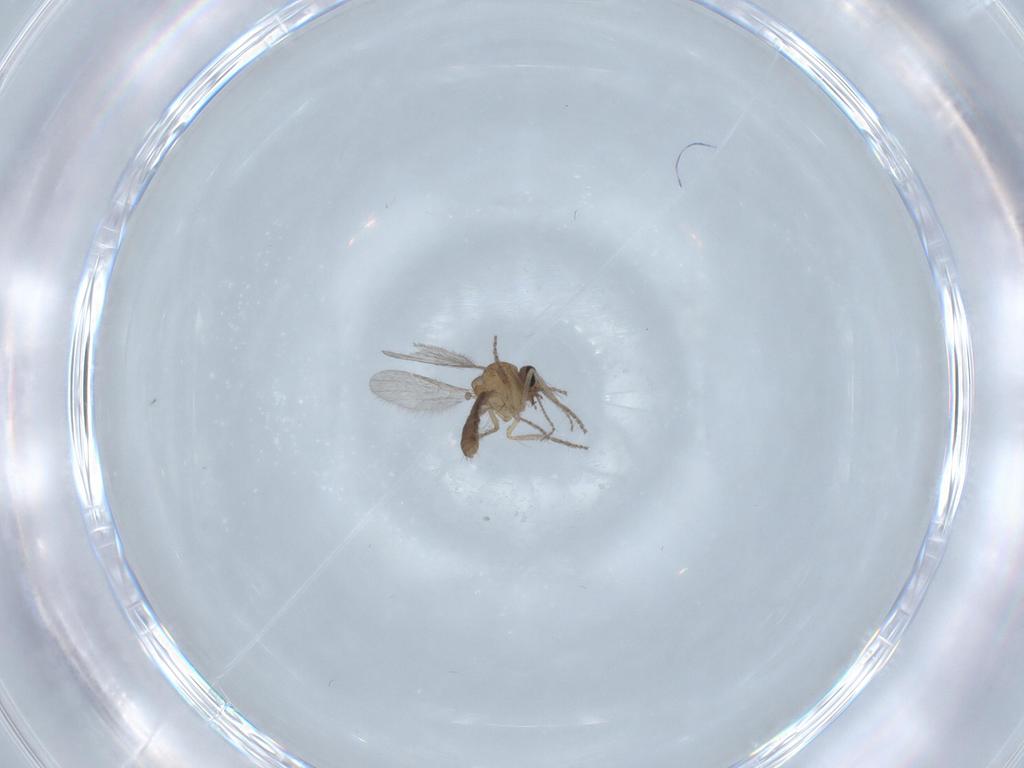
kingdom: Animalia
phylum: Arthropoda
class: Insecta
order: Diptera
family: Ceratopogonidae
